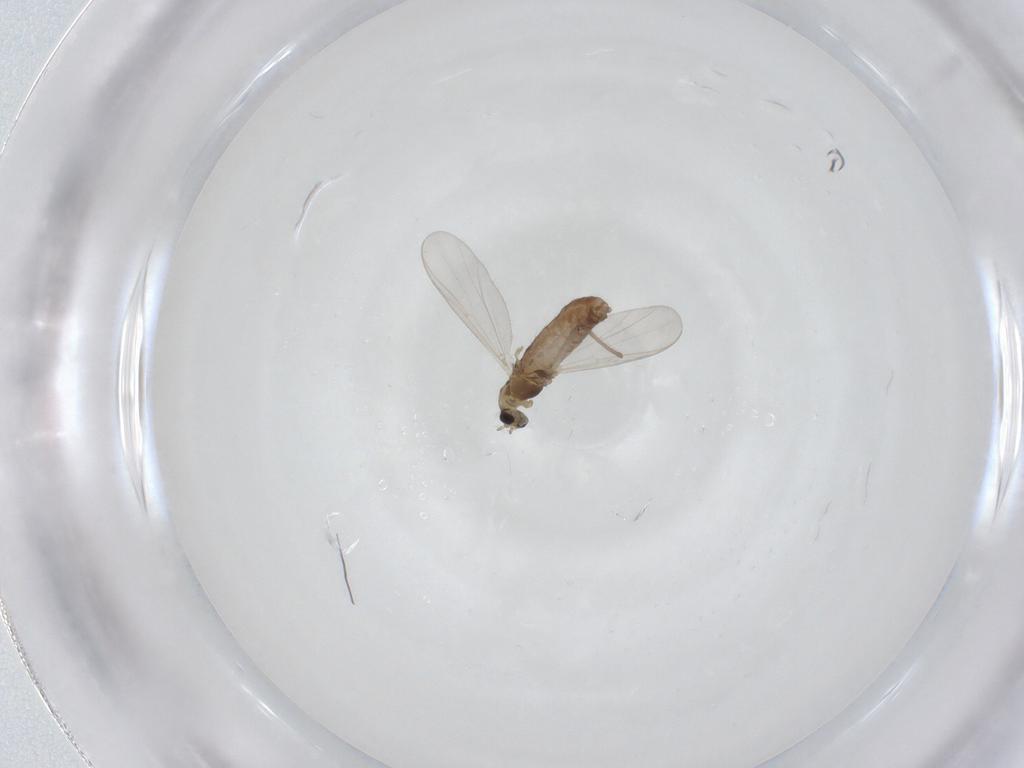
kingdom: Animalia
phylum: Arthropoda
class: Insecta
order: Diptera
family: Chironomidae
